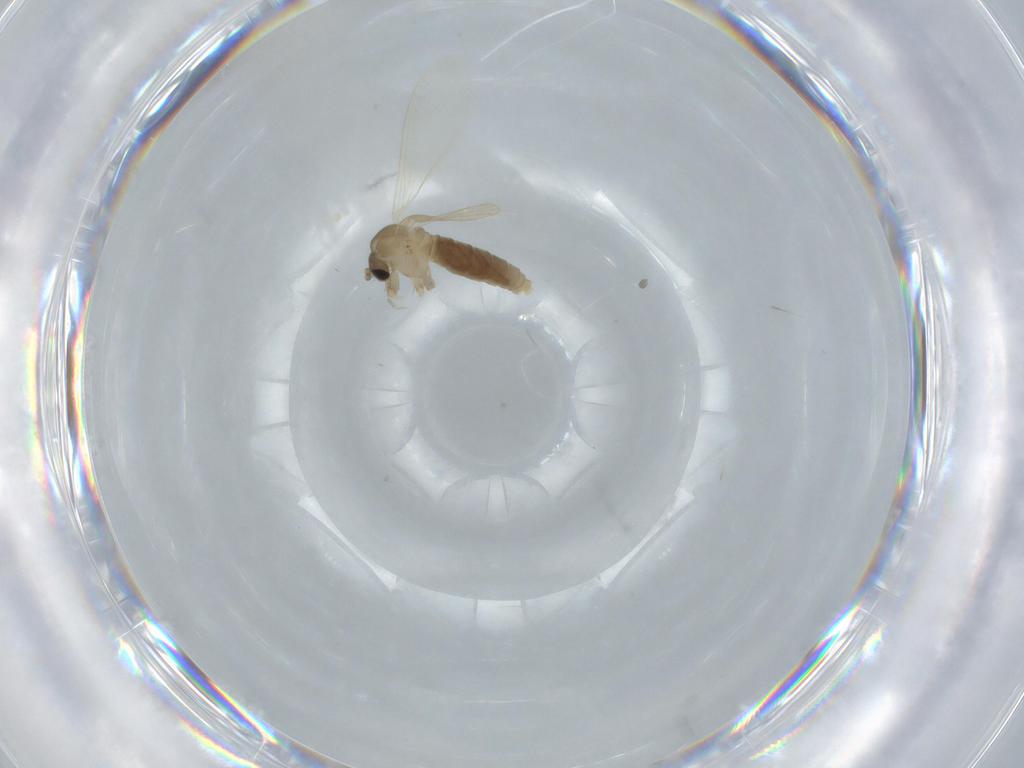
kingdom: Animalia
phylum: Arthropoda
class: Insecta
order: Diptera
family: Psychodidae
